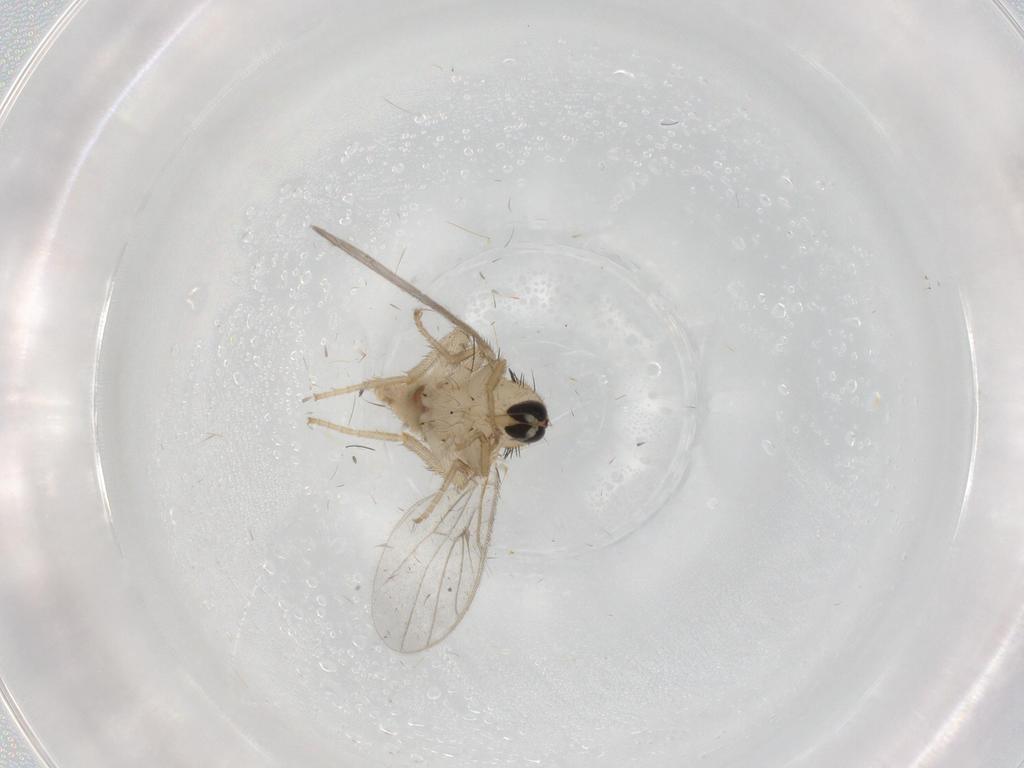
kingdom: Animalia
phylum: Arthropoda
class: Insecta
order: Diptera
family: Hybotidae
